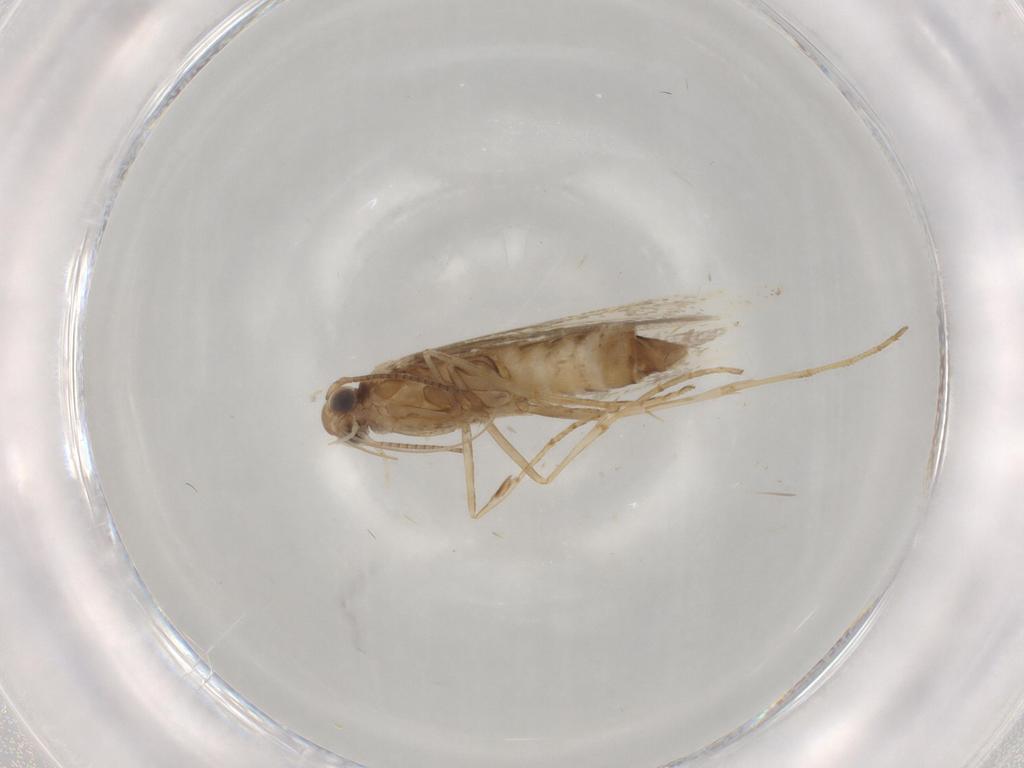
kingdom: Animalia
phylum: Arthropoda
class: Insecta
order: Lepidoptera
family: Gracillariidae
